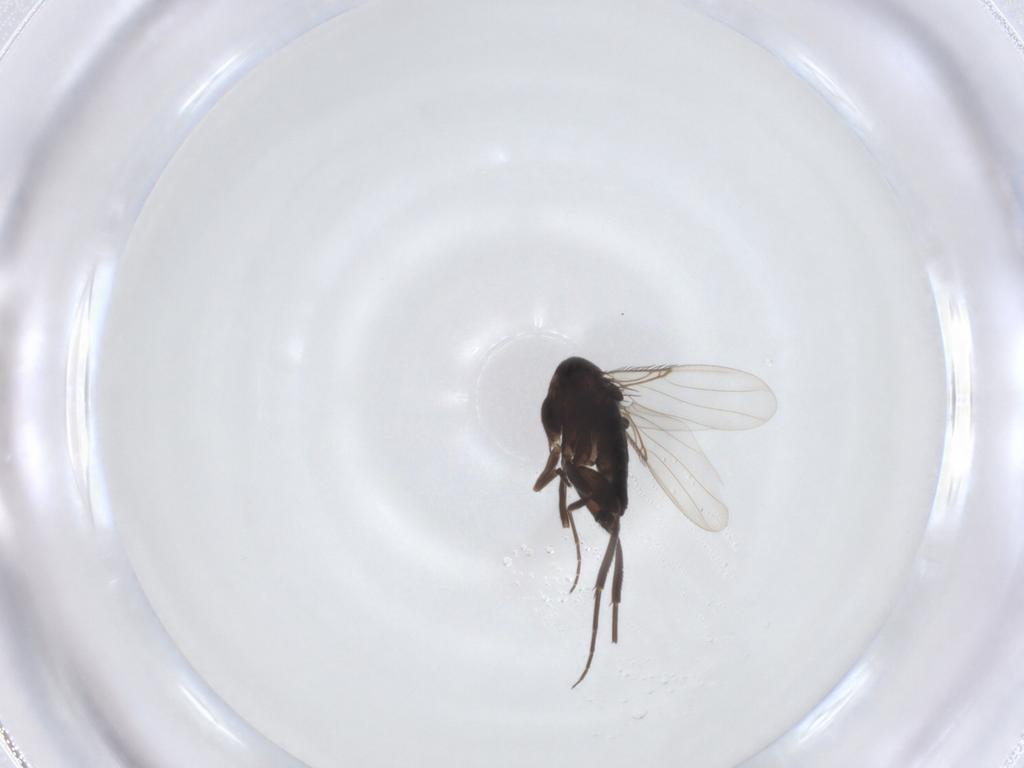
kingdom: Animalia
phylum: Arthropoda
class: Insecta
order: Diptera
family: Phoridae
